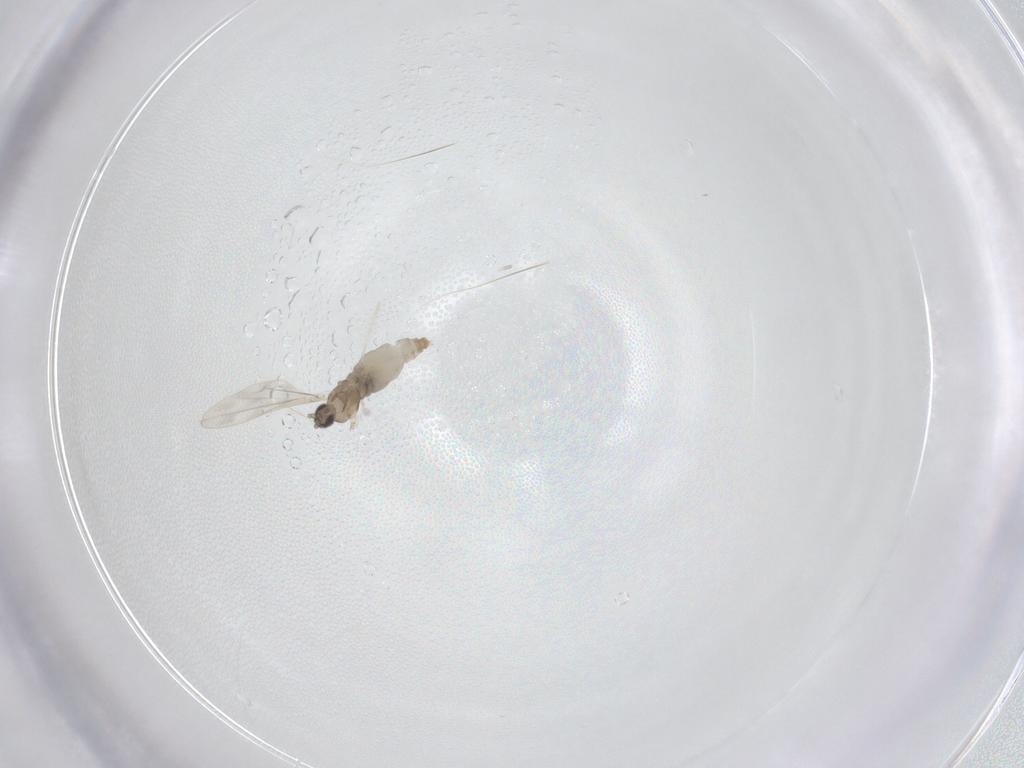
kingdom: Animalia
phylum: Arthropoda
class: Insecta
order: Diptera
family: Cecidomyiidae
